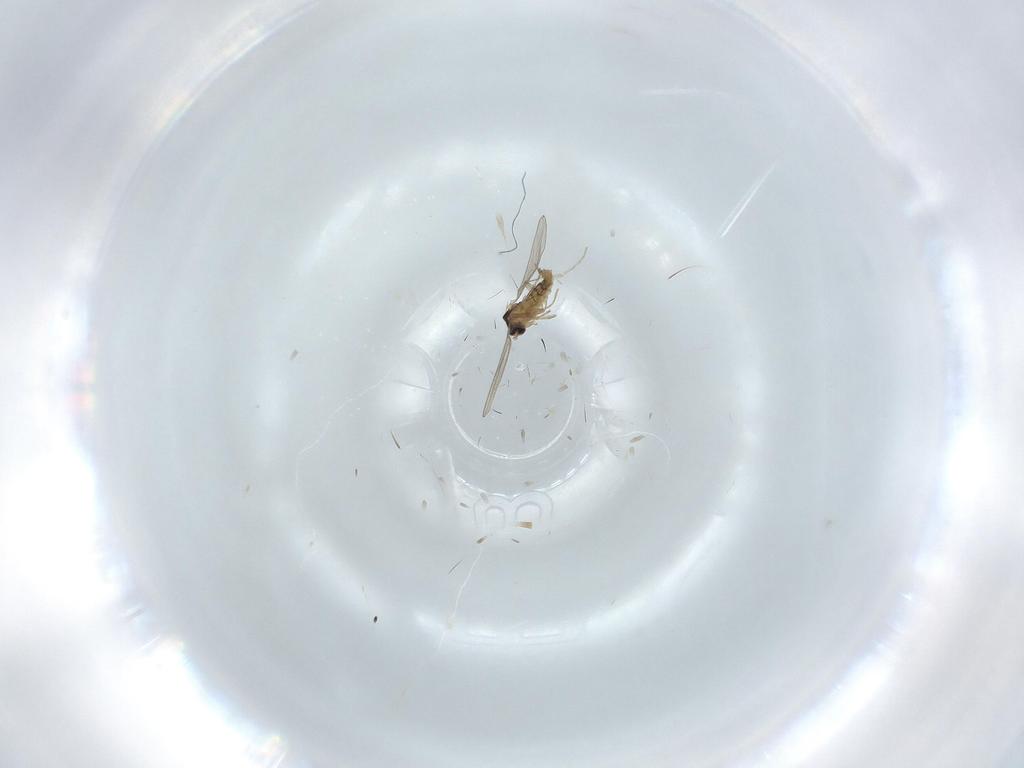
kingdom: Animalia
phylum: Arthropoda
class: Insecta
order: Diptera
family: Cecidomyiidae
